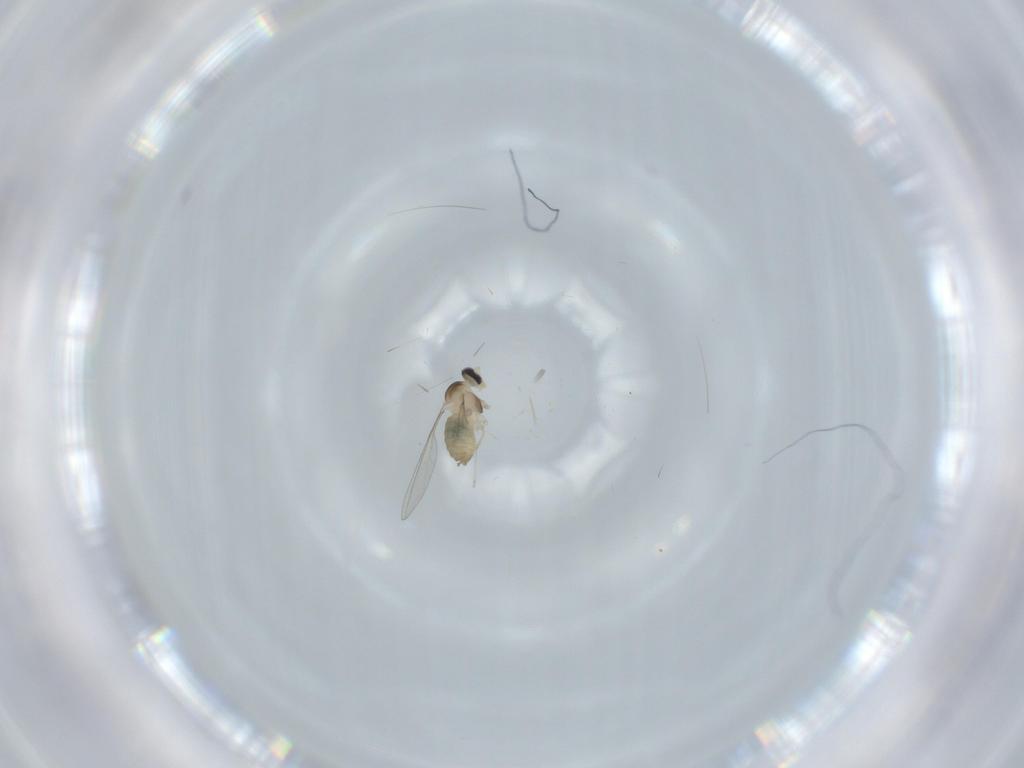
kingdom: Animalia
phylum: Arthropoda
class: Insecta
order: Diptera
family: Cecidomyiidae
